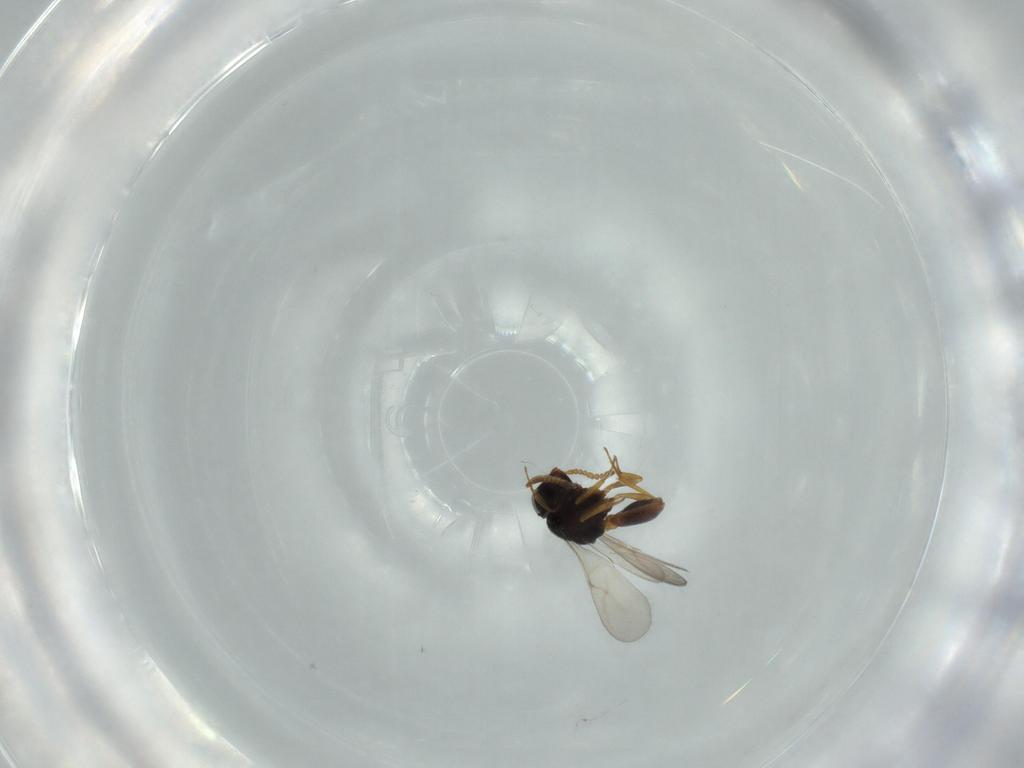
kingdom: Animalia
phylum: Arthropoda
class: Insecta
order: Hymenoptera
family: Scelionidae
